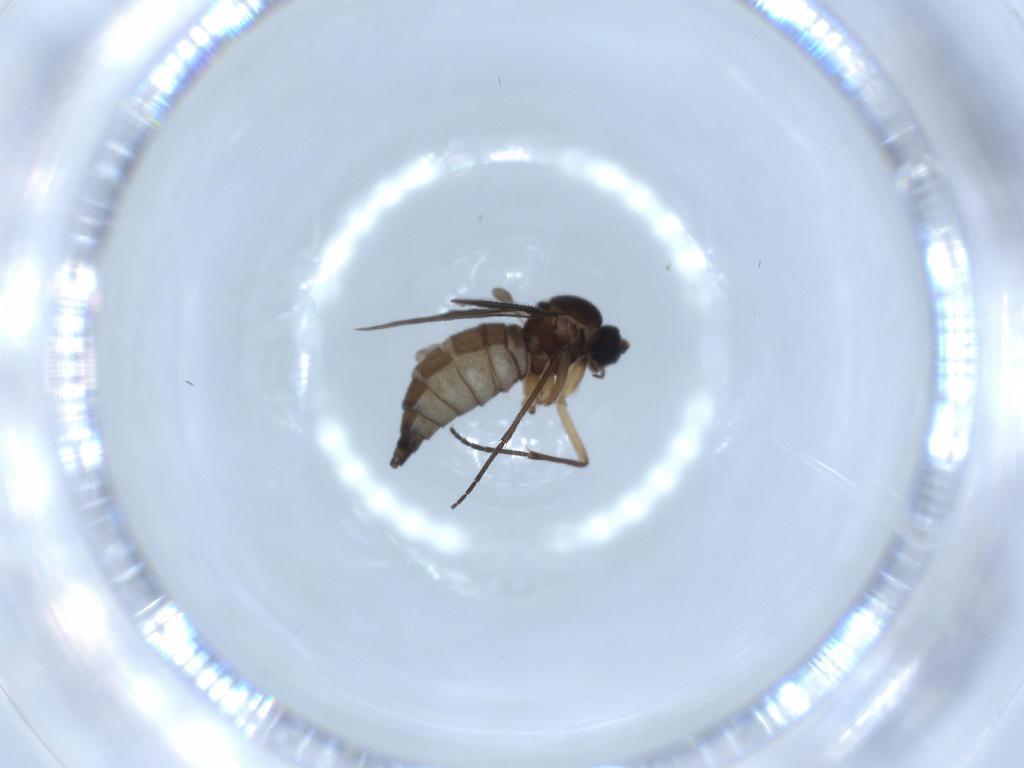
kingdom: Animalia
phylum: Arthropoda
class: Insecta
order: Diptera
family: Sciaridae
